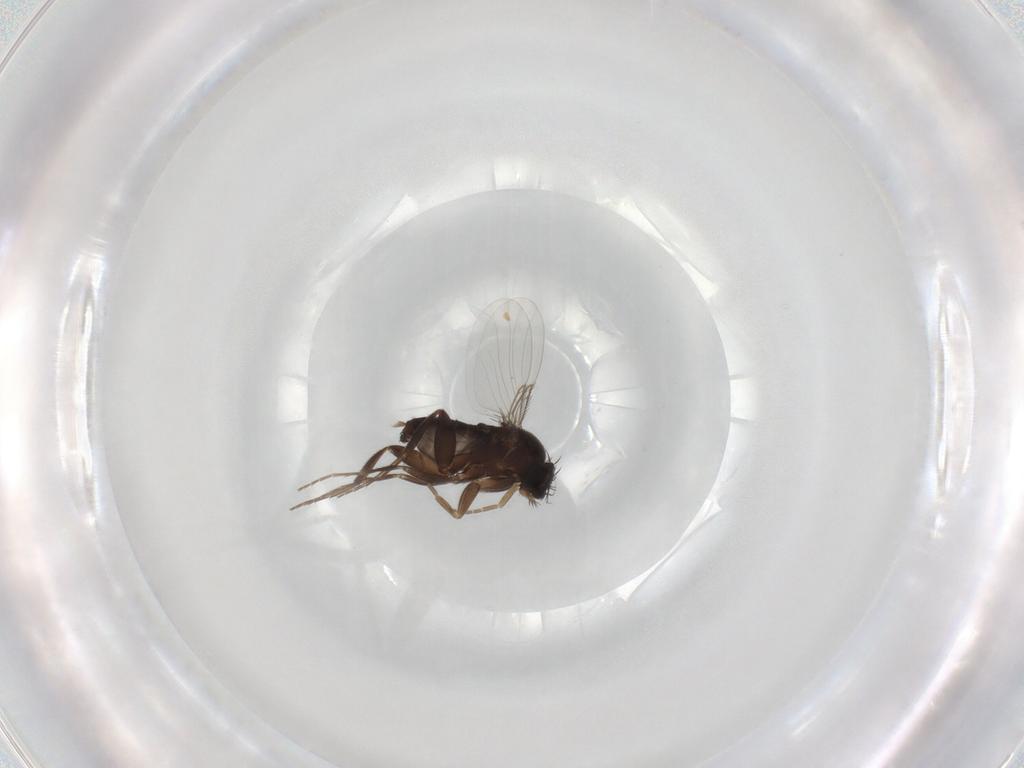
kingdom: Animalia
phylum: Arthropoda
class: Insecta
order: Diptera
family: Phoridae
